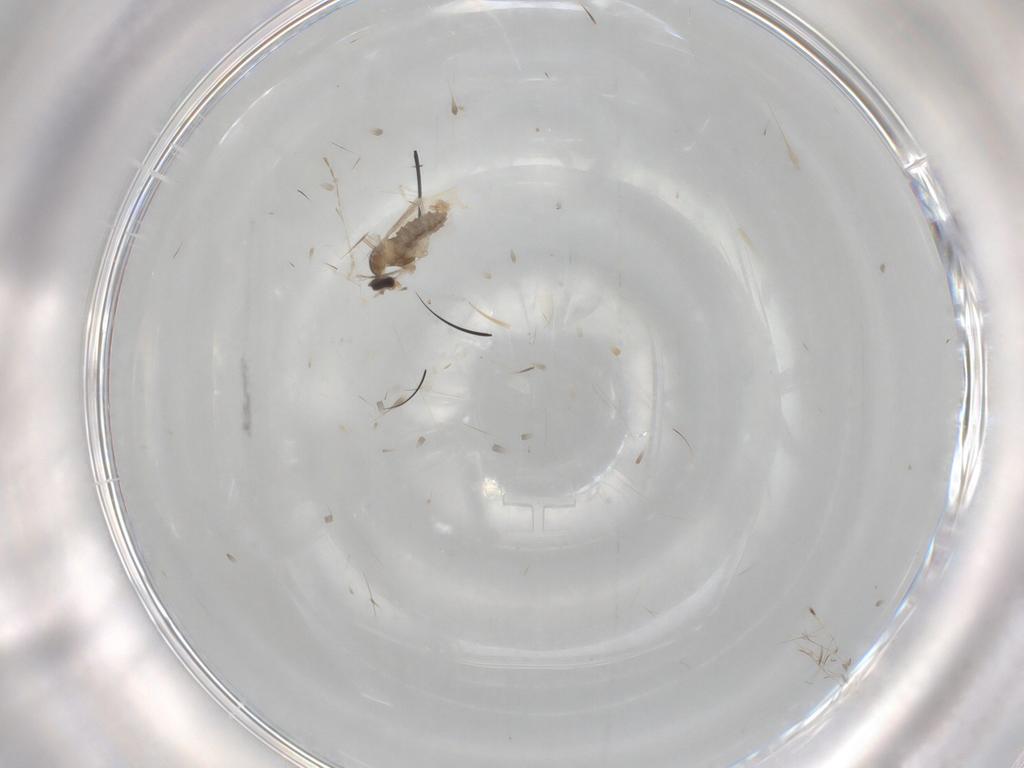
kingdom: Animalia
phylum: Arthropoda
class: Insecta
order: Diptera
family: Cecidomyiidae
